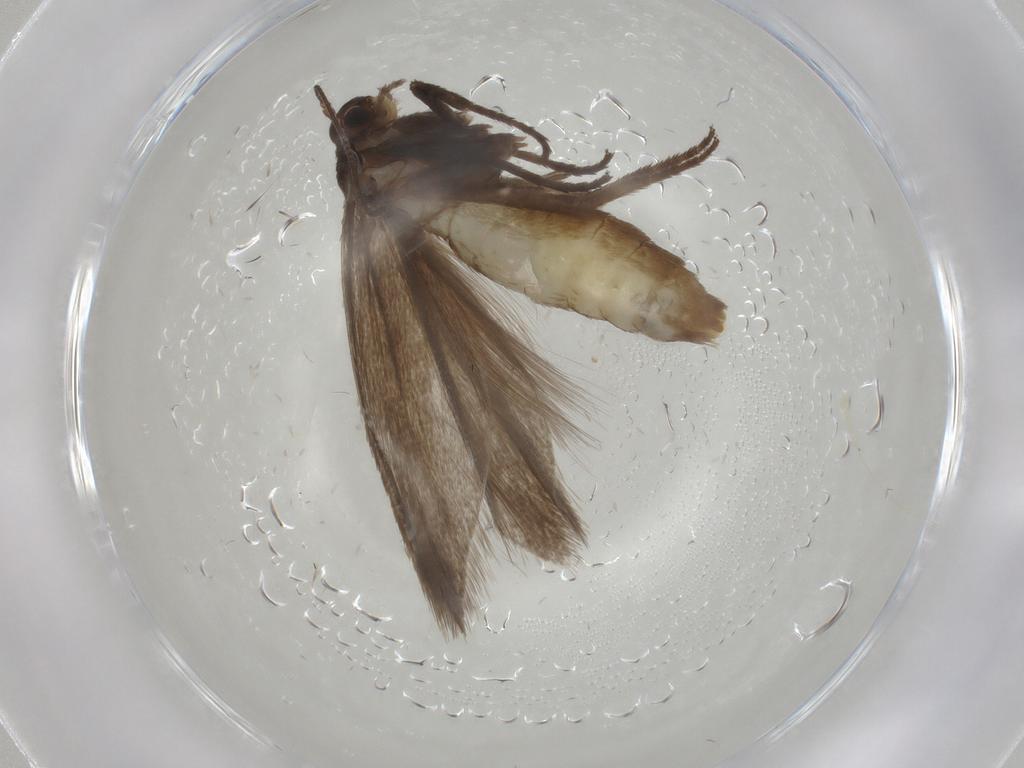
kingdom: Animalia
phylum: Arthropoda
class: Insecta
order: Lepidoptera
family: Limacodidae
